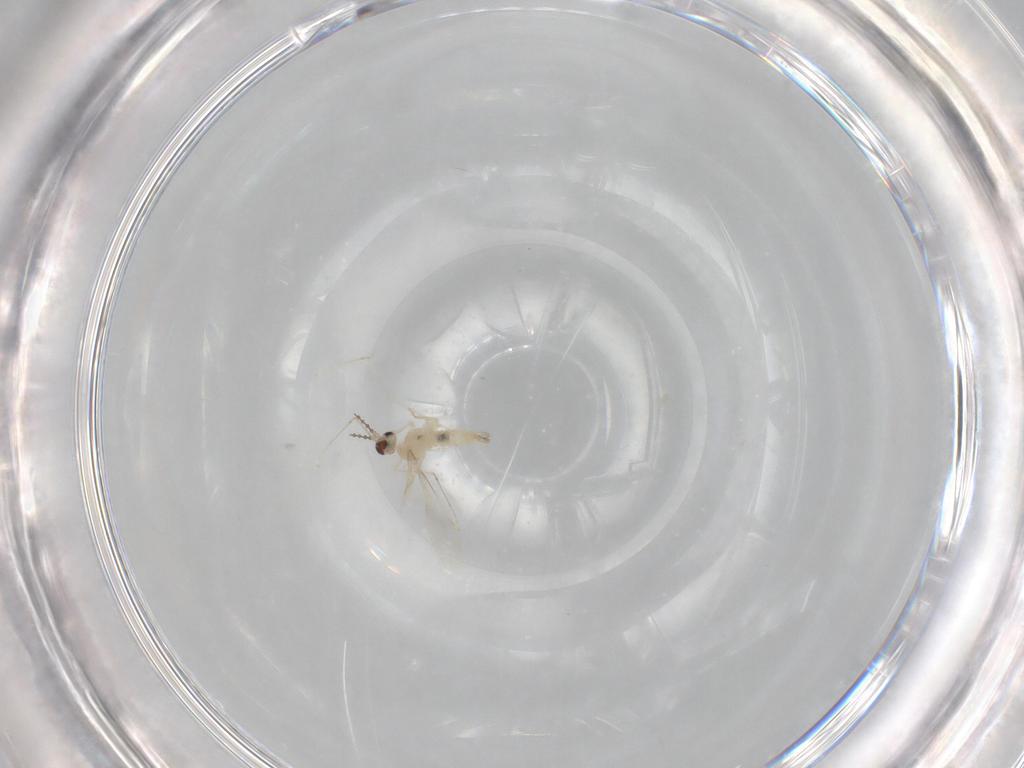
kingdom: Animalia
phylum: Arthropoda
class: Insecta
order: Diptera
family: Cecidomyiidae
